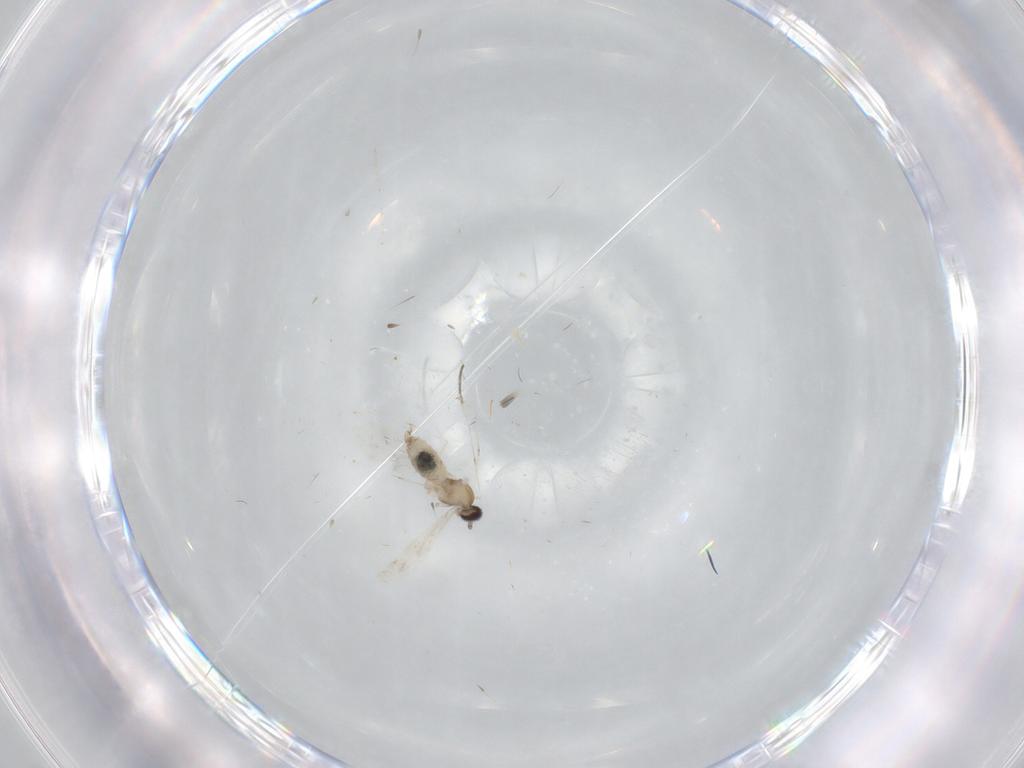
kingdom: Animalia
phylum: Arthropoda
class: Insecta
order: Diptera
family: Cecidomyiidae
